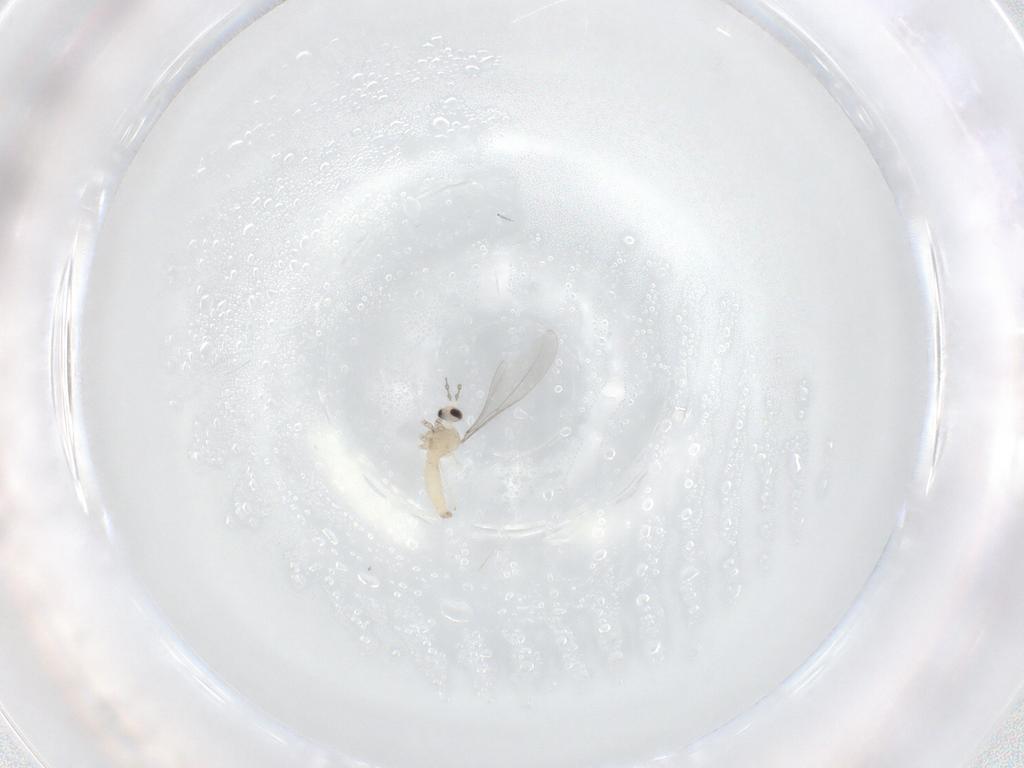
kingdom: Animalia
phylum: Arthropoda
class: Insecta
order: Diptera
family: Cecidomyiidae
